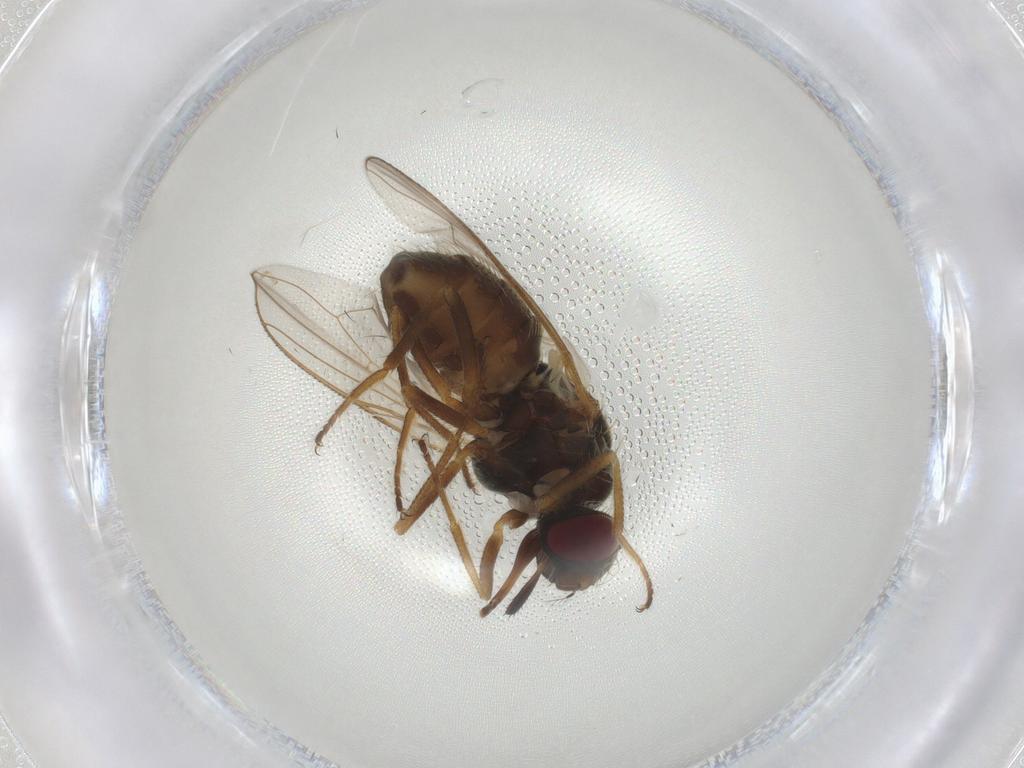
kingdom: Animalia
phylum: Arthropoda
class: Insecta
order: Diptera
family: Muscidae
